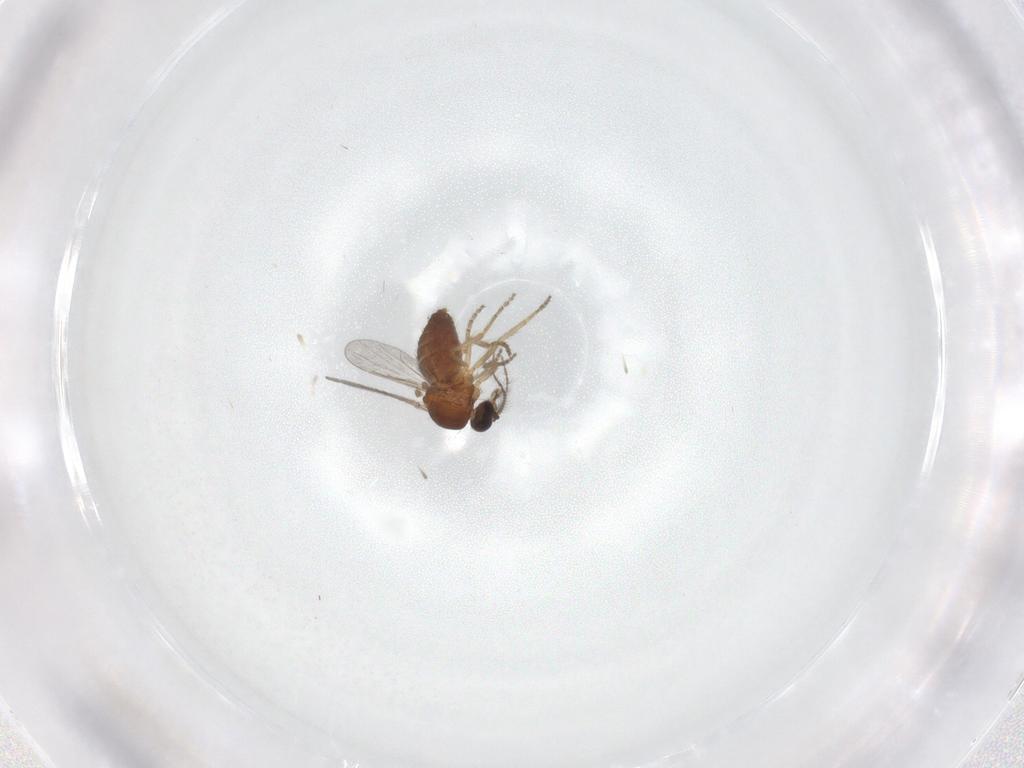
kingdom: Animalia
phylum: Arthropoda
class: Insecta
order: Diptera
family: Ceratopogonidae
